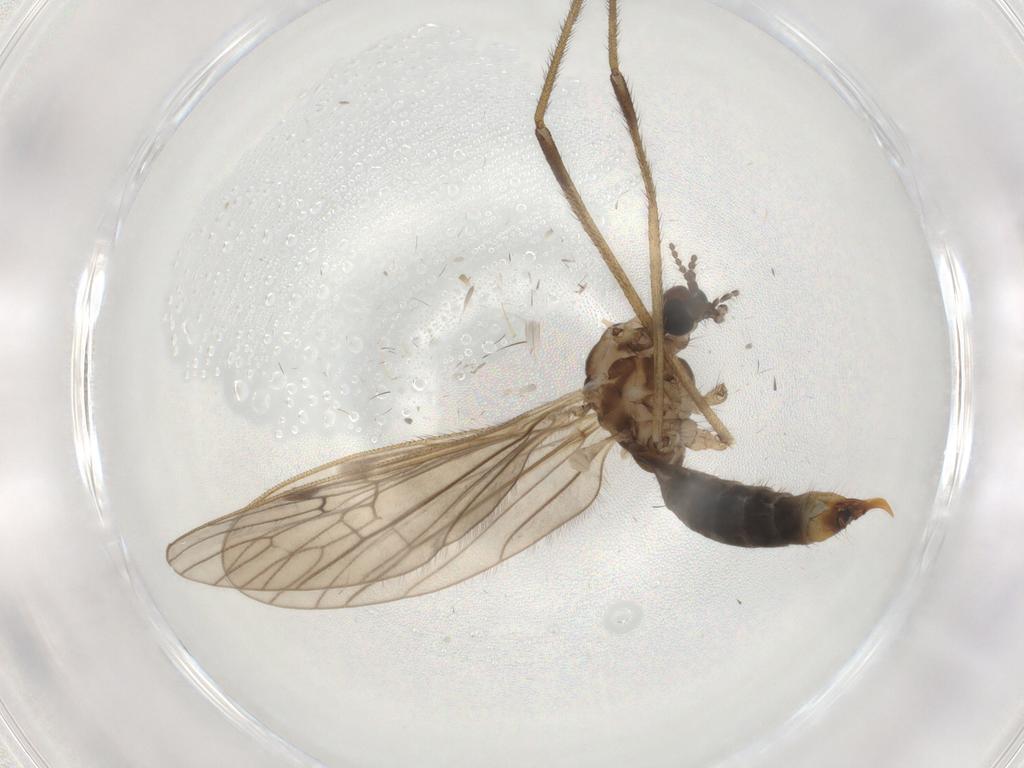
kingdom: Animalia
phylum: Arthropoda
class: Insecta
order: Diptera
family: Limoniidae
